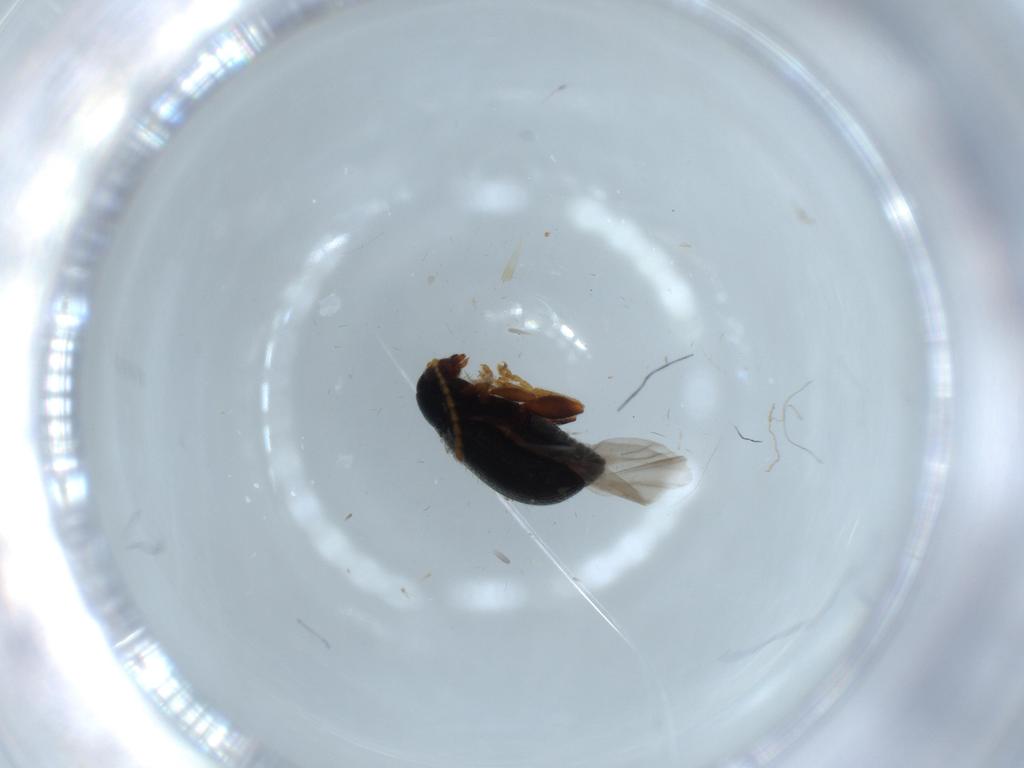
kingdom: Animalia
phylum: Arthropoda
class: Insecta
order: Coleoptera
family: Chrysomelidae
